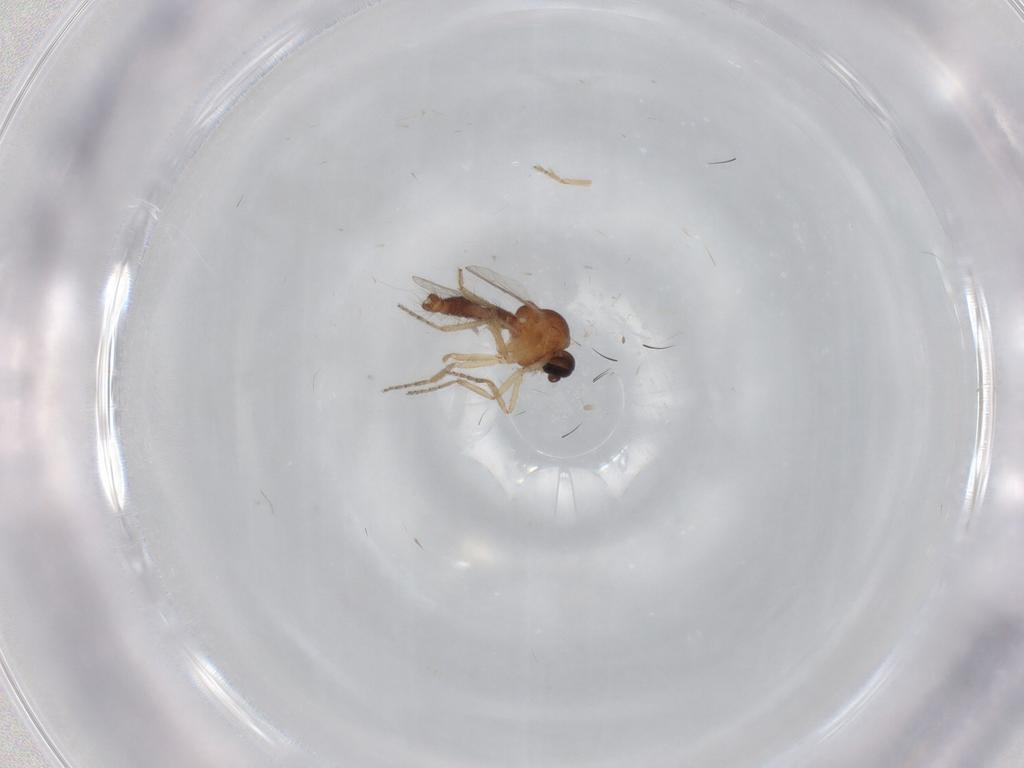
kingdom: Animalia
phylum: Arthropoda
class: Insecta
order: Diptera
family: Ceratopogonidae
